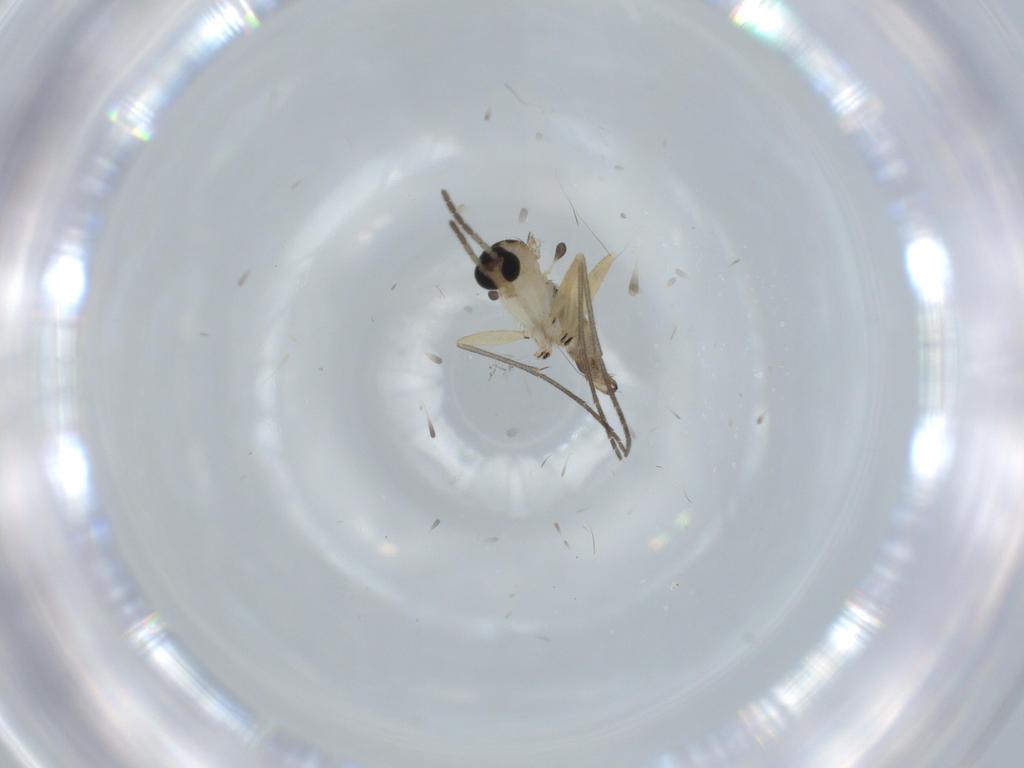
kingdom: Animalia
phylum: Arthropoda
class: Insecta
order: Diptera
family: Sciaridae
